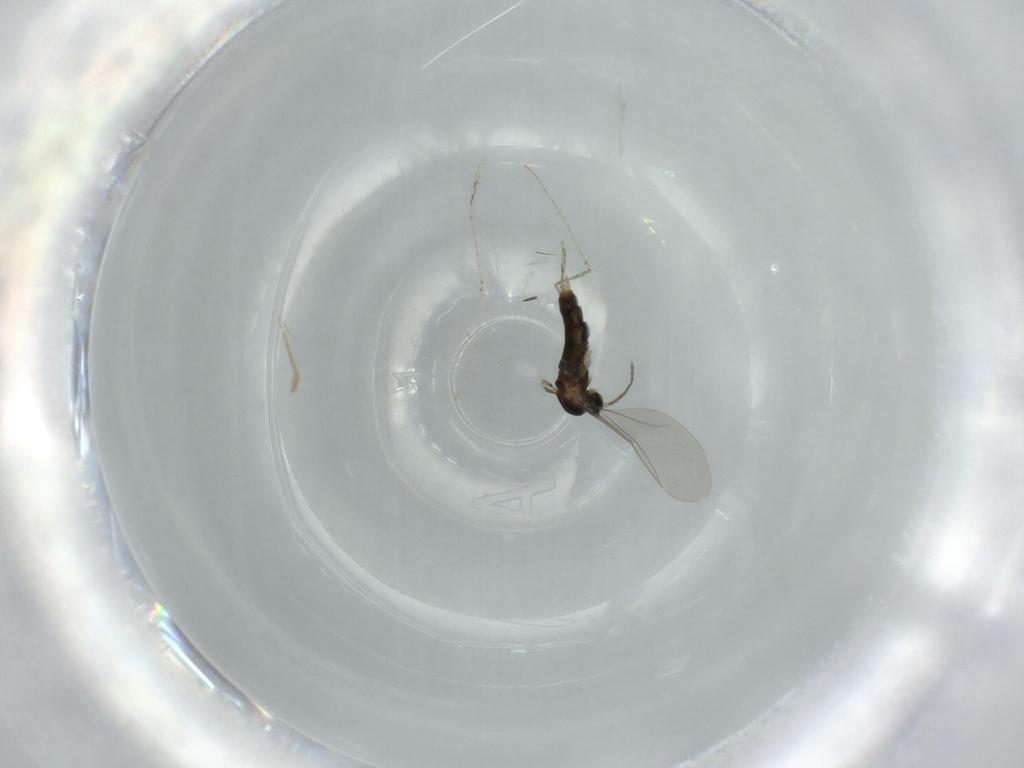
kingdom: Animalia
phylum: Arthropoda
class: Insecta
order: Diptera
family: Cecidomyiidae
